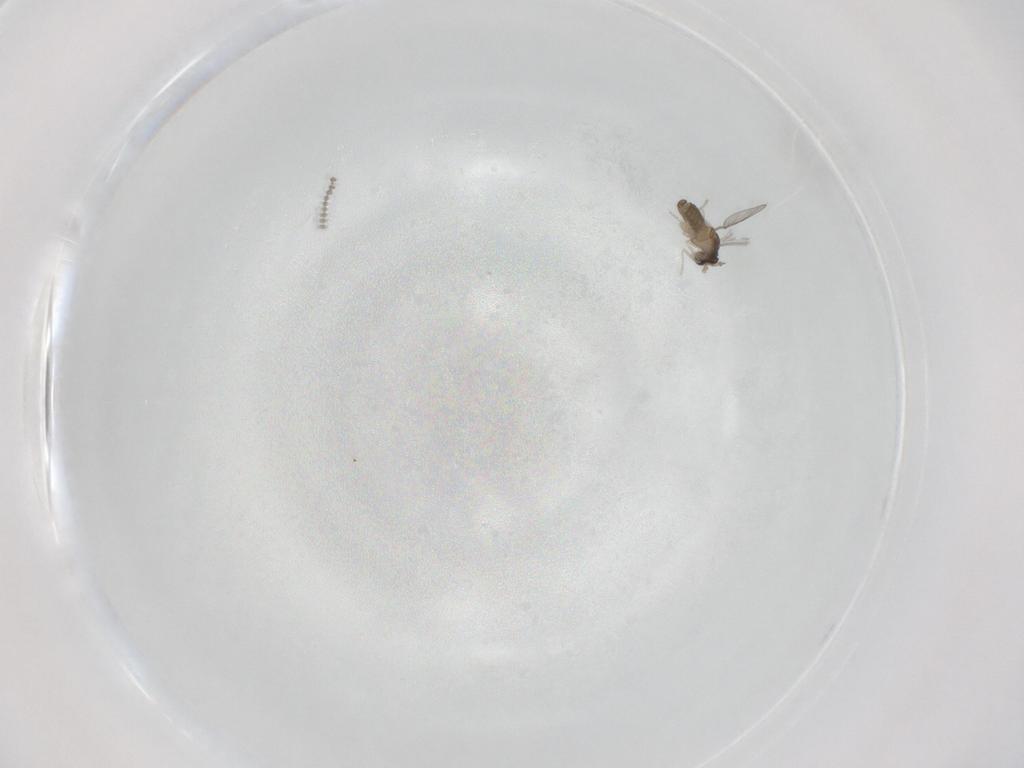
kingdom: Animalia
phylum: Arthropoda
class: Insecta
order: Diptera
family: Cecidomyiidae
